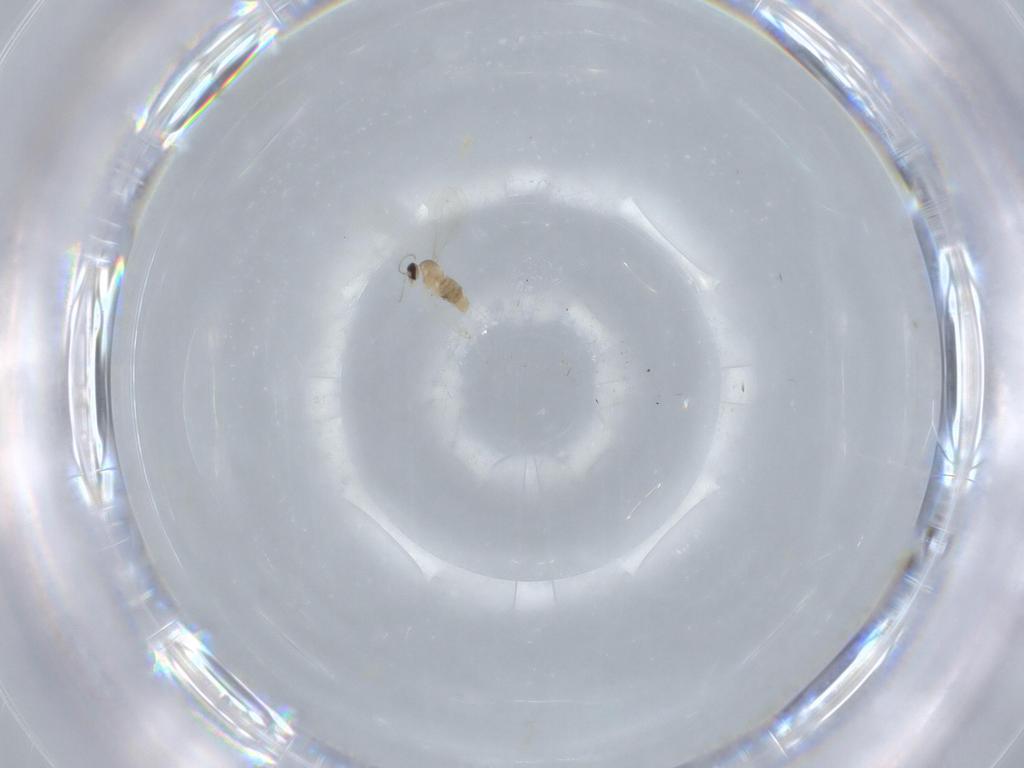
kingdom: Animalia
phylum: Arthropoda
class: Insecta
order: Diptera
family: Cecidomyiidae
